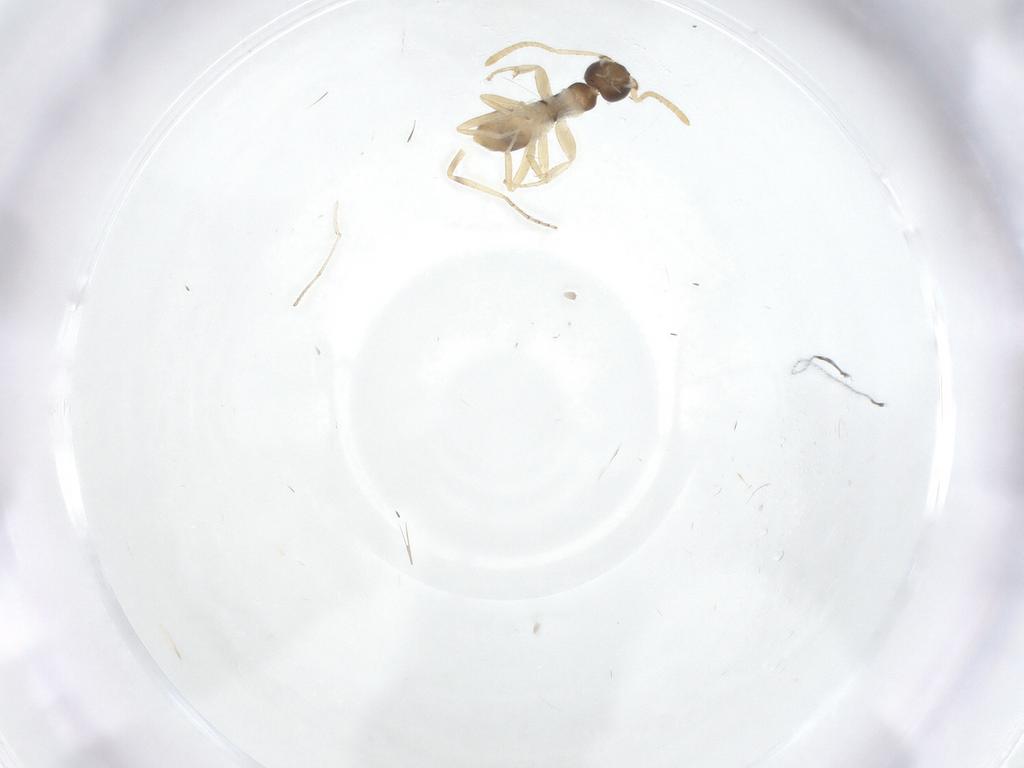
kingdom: Animalia
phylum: Arthropoda
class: Insecta
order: Hymenoptera
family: Formicidae
